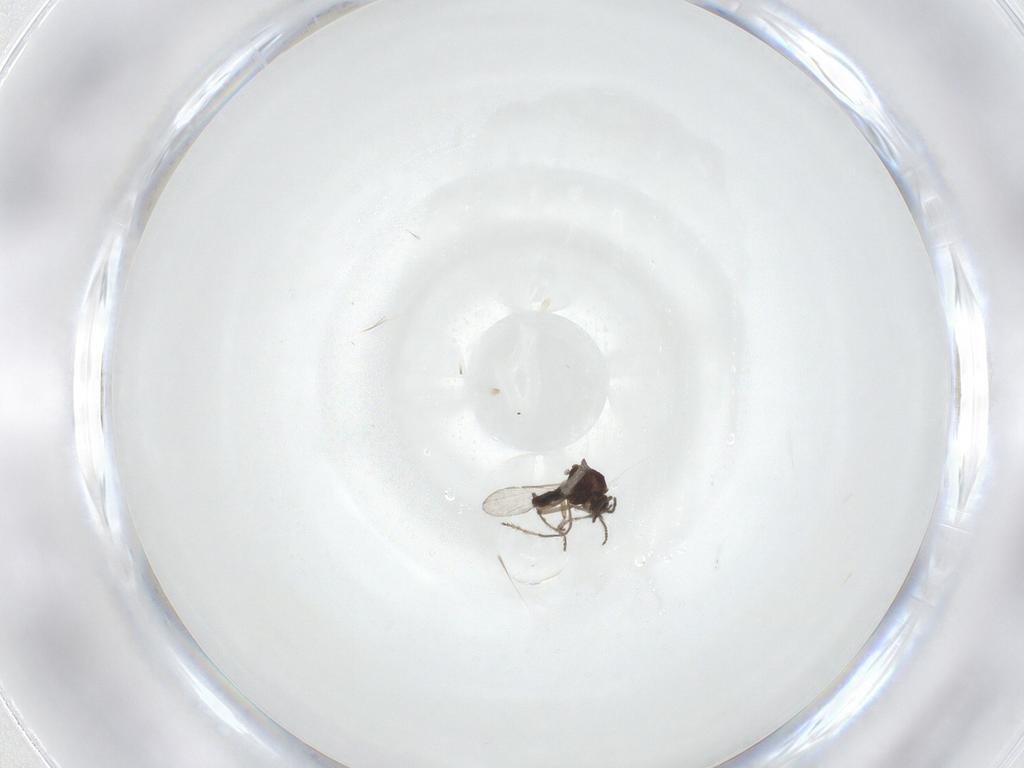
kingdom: Animalia
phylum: Arthropoda
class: Insecta
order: Diptera
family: Ceratopogonidae
